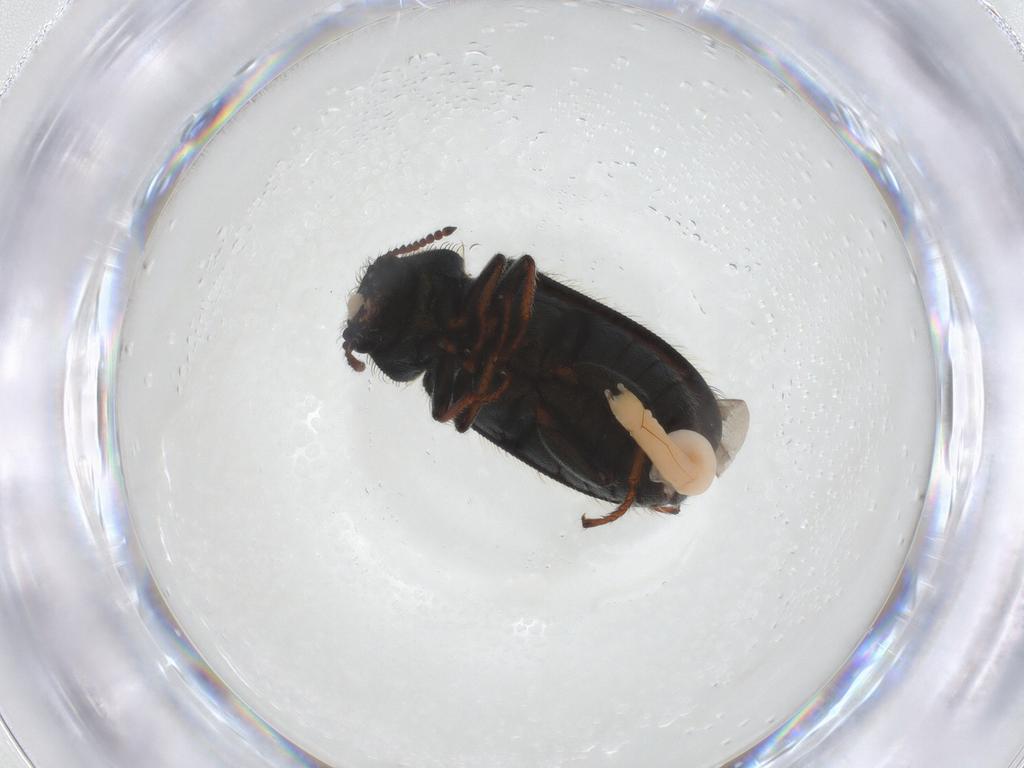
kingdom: Animalia
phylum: Arthropoda
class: Insecta
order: Coleoptera
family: Melyridae
